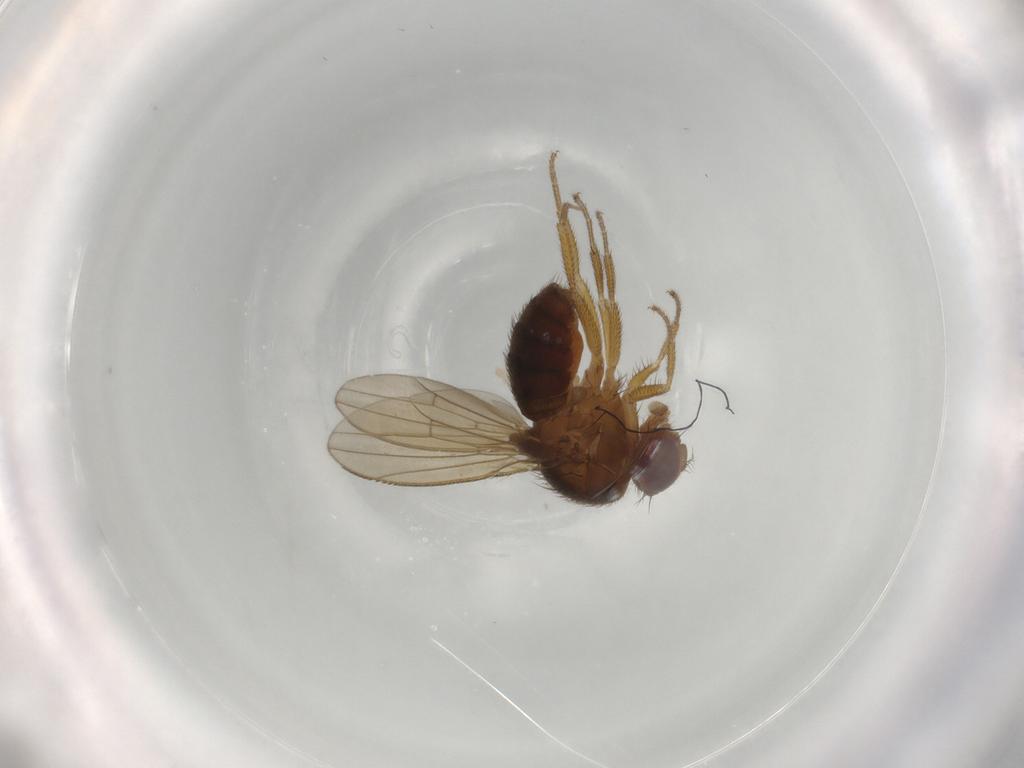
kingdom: Animalia
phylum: Arthropoda
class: Insecta
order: Diptera
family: Drosophilidae
